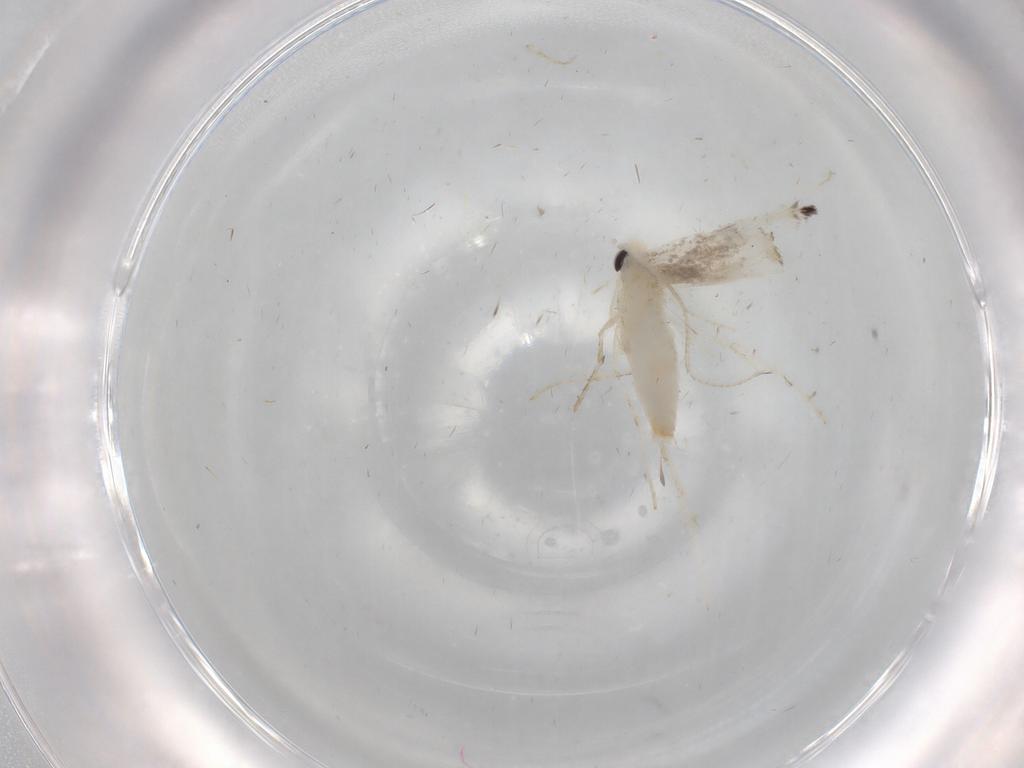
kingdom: Animalia
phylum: Arthropoda
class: Insecta
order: Lepidoptera
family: Gracillariidae
